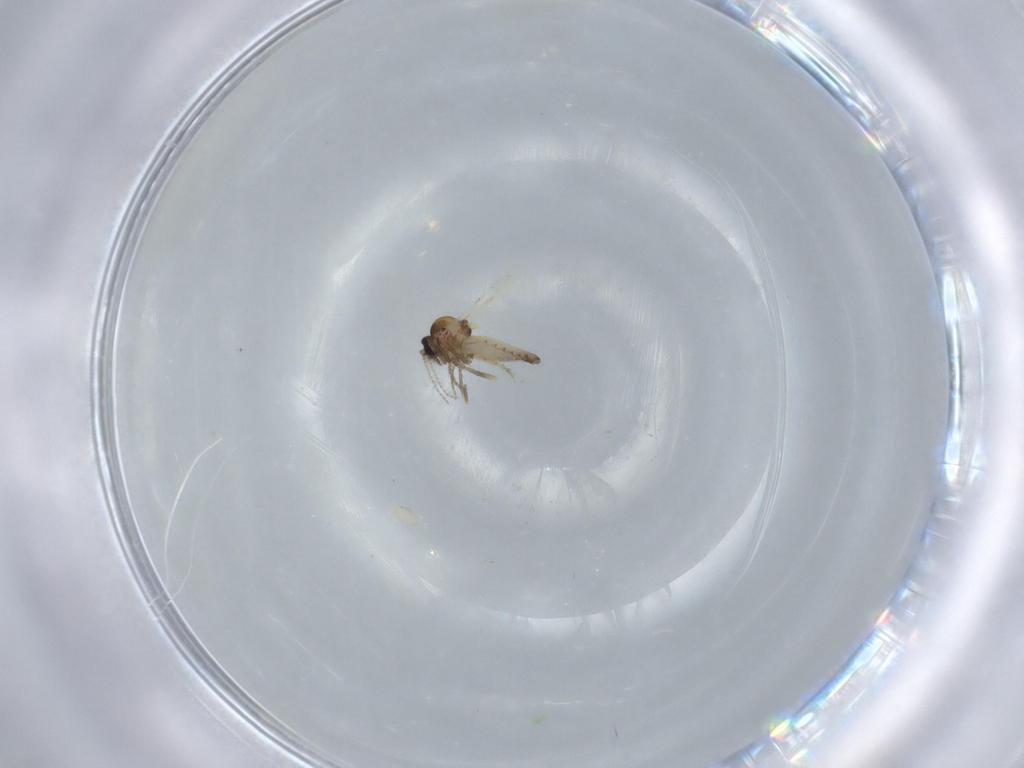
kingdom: Animalia
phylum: Arthropoda
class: Insecta
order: Diptera
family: Ceratopogonidae
